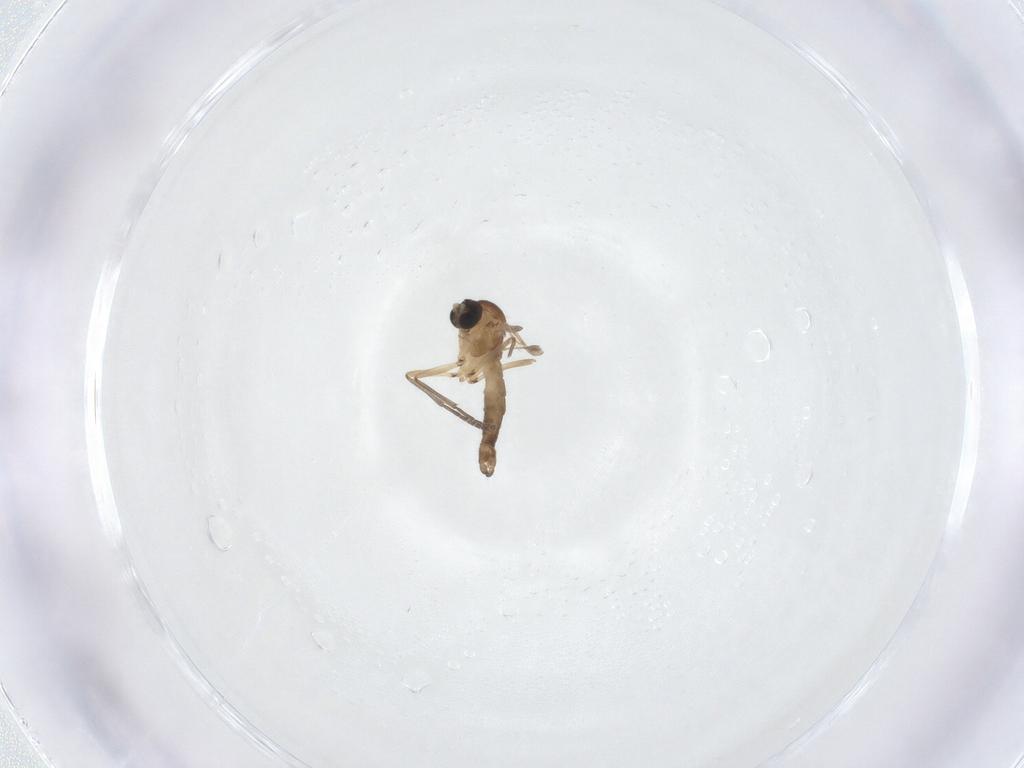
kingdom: Animalia
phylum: Arthropoda
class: Insecta
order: Diptera
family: Sciaridae
